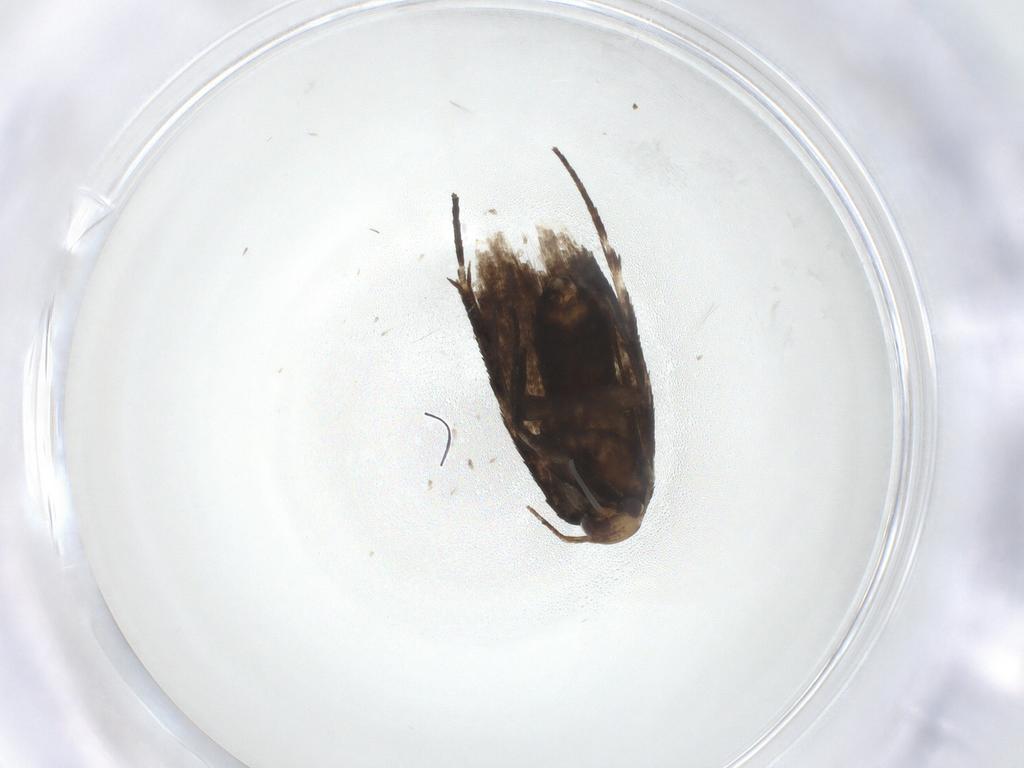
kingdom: Animalia
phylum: Arthropoda
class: Insecta
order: Lepidoptera
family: Cosmopterigidae
